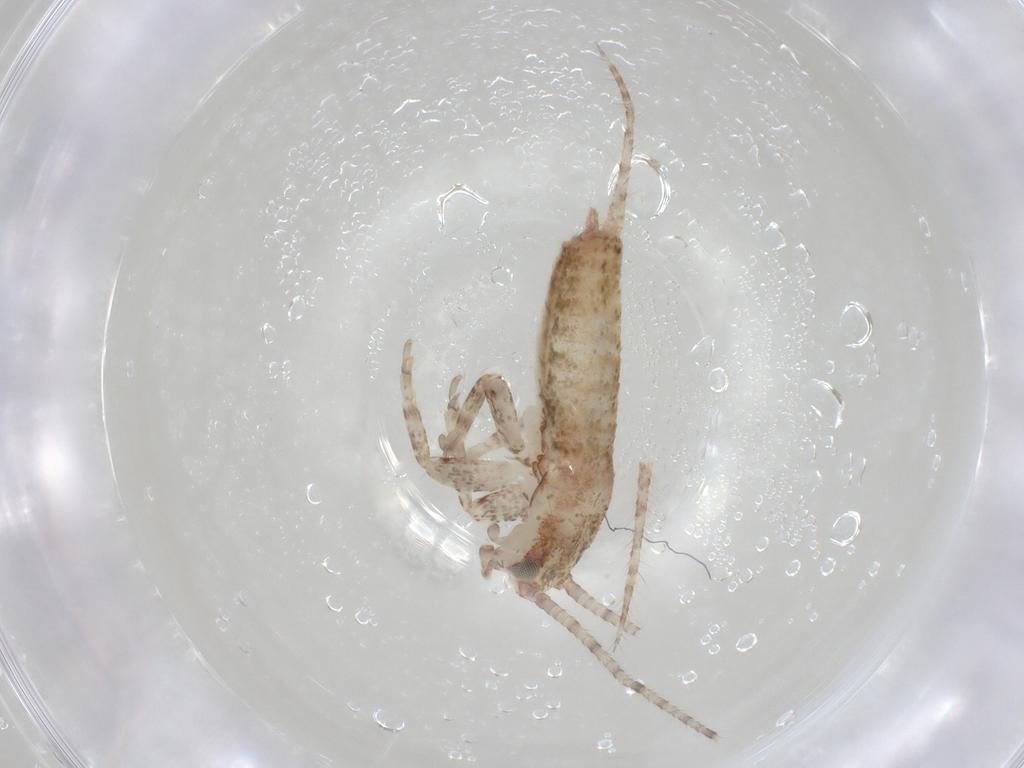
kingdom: Animalia
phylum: Arthropoda
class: Insecta
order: Orthoptera
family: Mogoplistidae
